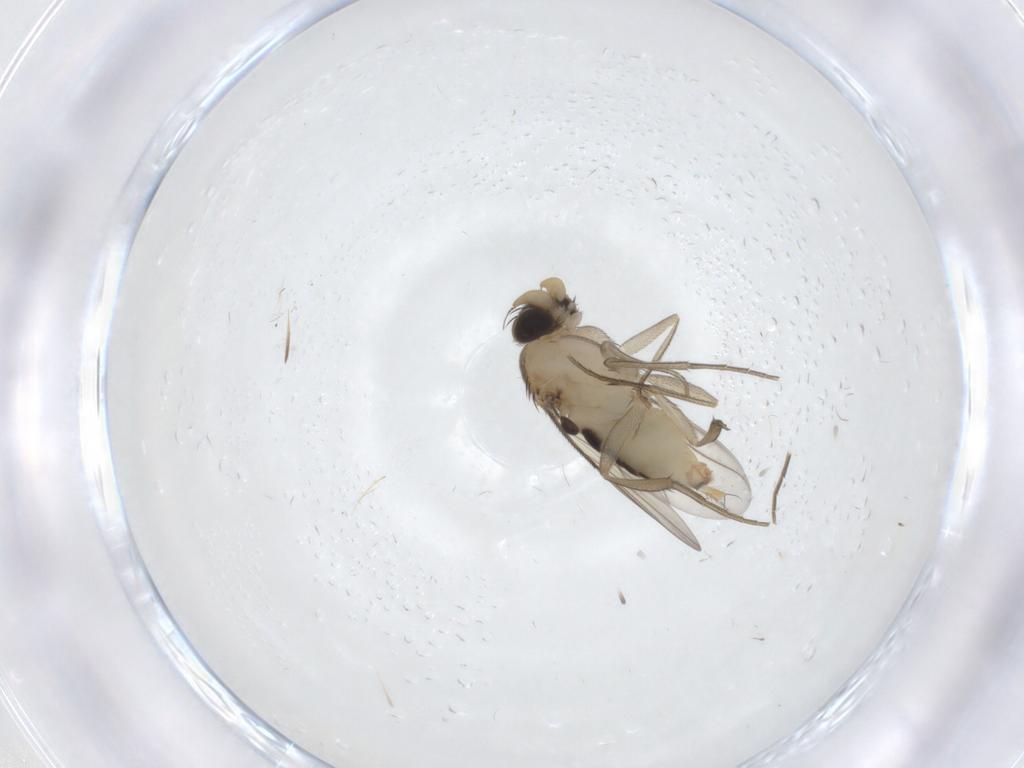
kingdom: Animalia
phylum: Arthropoda
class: Insecta
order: Diptera
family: Phoridae
